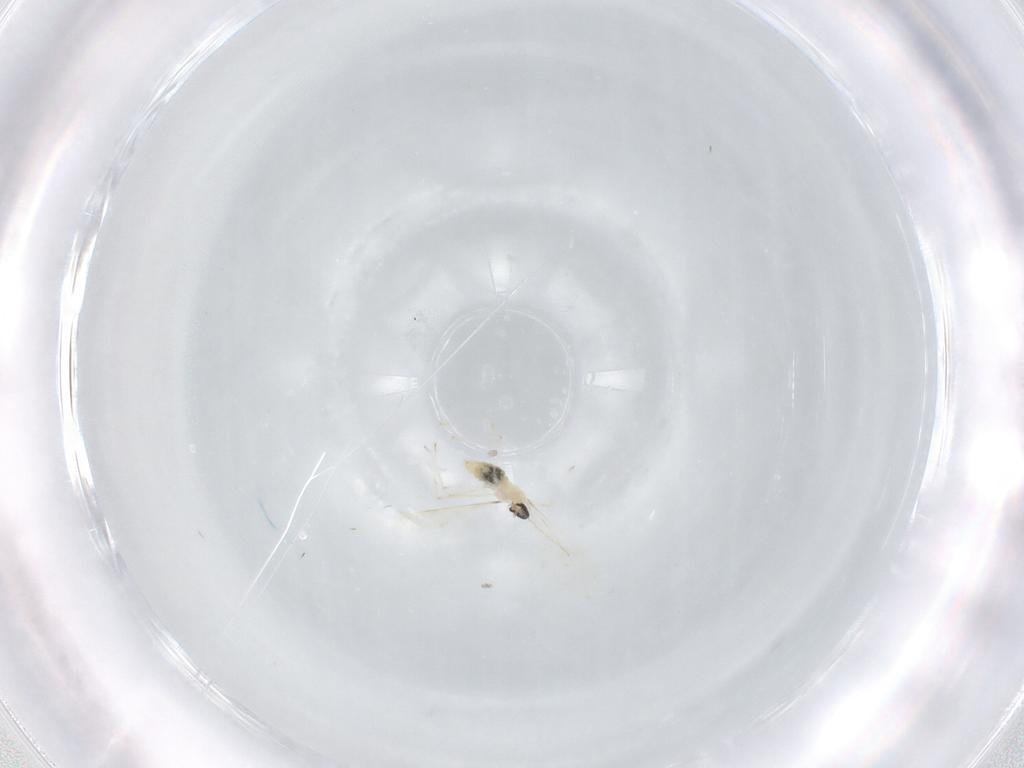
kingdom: Animalia
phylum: Arthropoda
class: Insecta
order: Diptera
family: Cecidomyiidae
